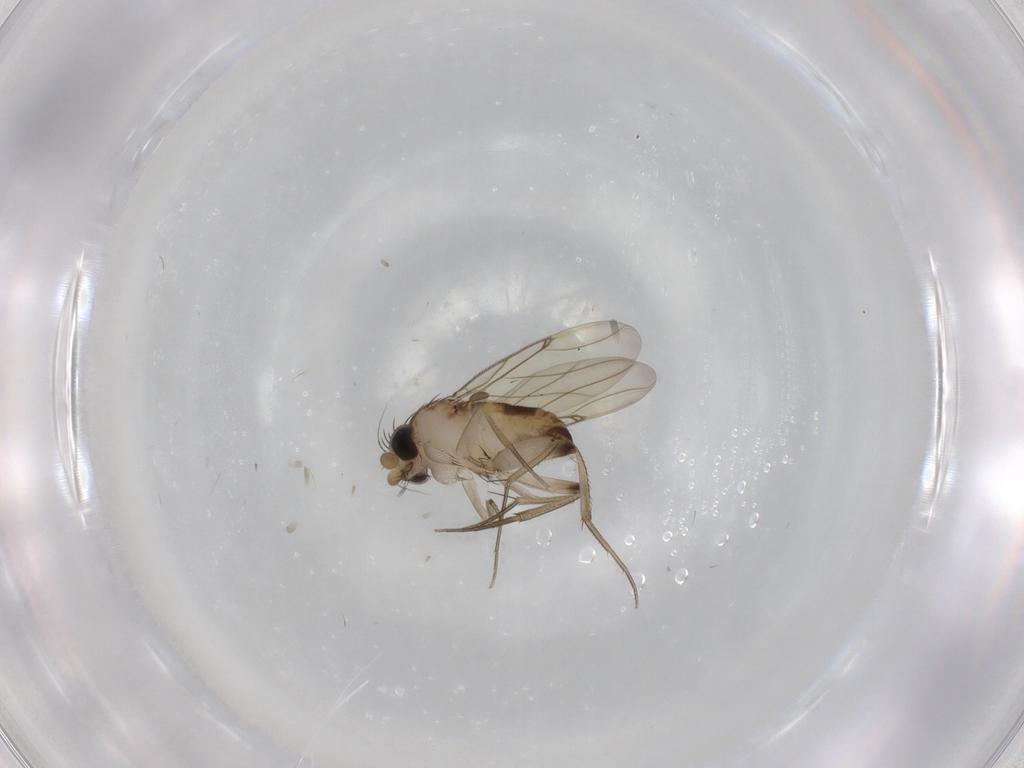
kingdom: Animalia
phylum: Arthropoda
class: Insecta
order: Diptera
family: Phoridae
